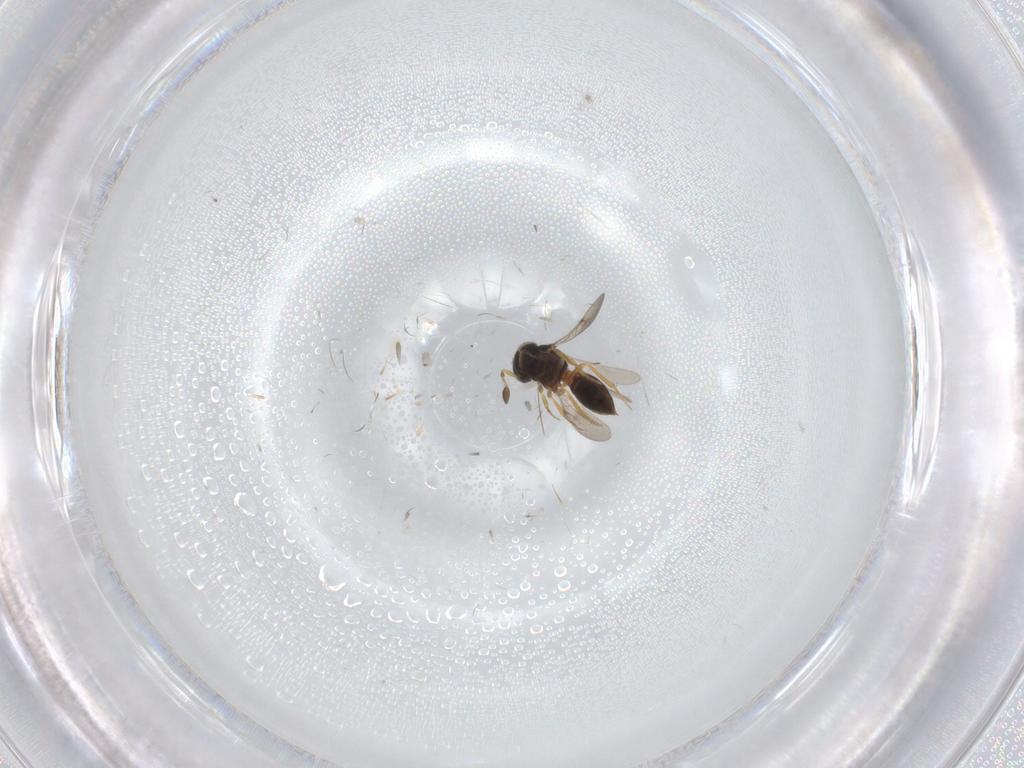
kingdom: Animalia
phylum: Arthropoda
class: Insecta
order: Hymenoptera
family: Scelionidae
